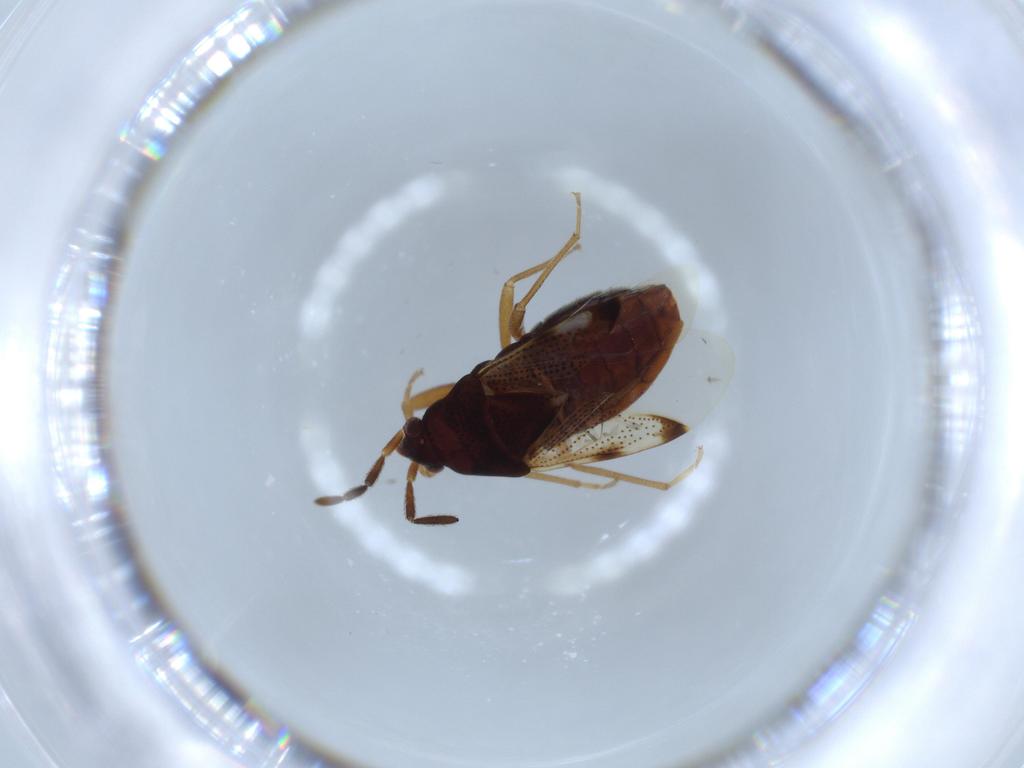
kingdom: Animalia
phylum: Arthropoda
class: Insecta
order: Hemiptera
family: Rhyparochromidae
